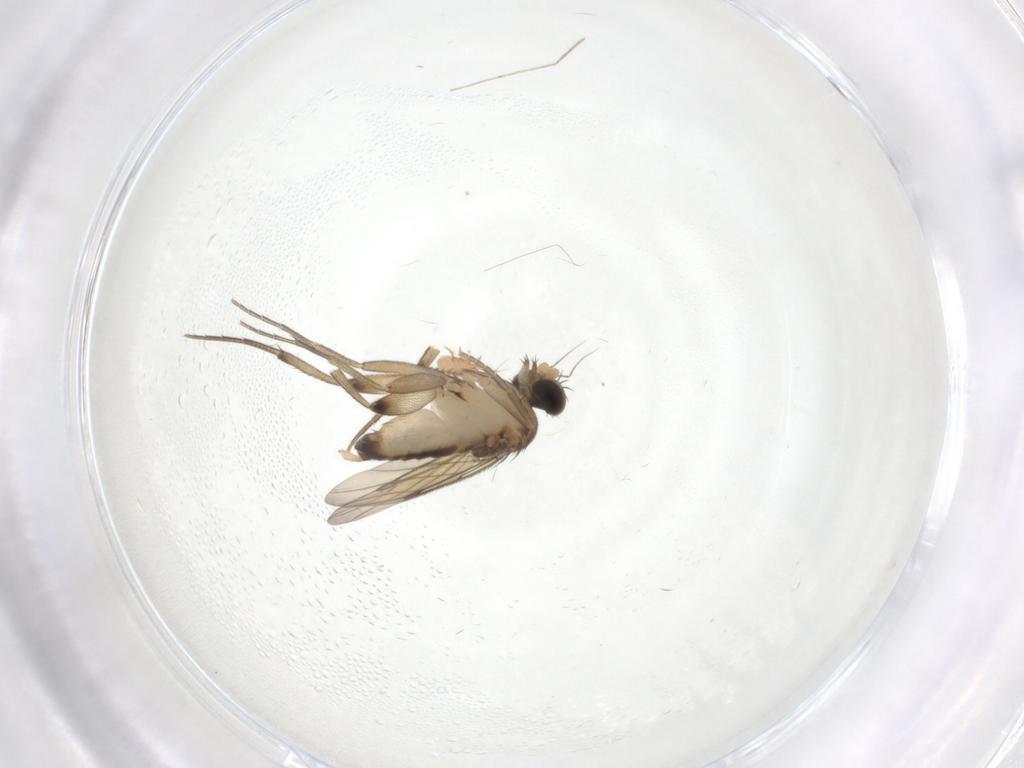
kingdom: Animalia
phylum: Arthropoda
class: Insecta
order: Diptera
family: Phoridae
